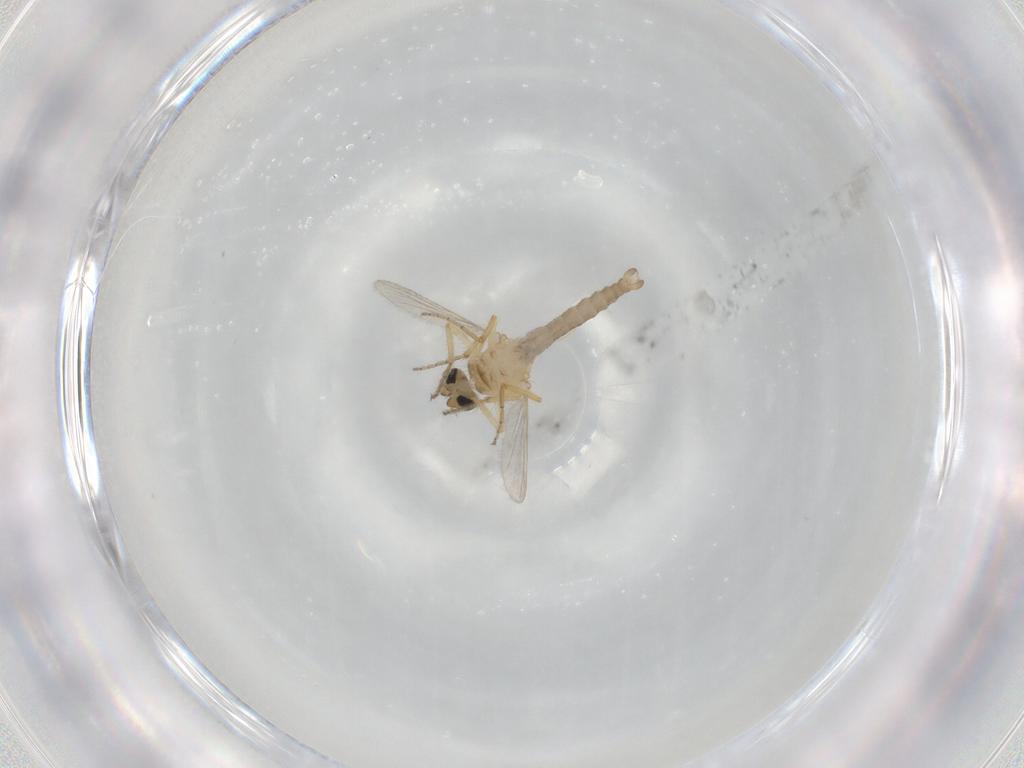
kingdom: Animalia
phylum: Arthropoda
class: Insecta
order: Diptera
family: Ceratopogonidae
